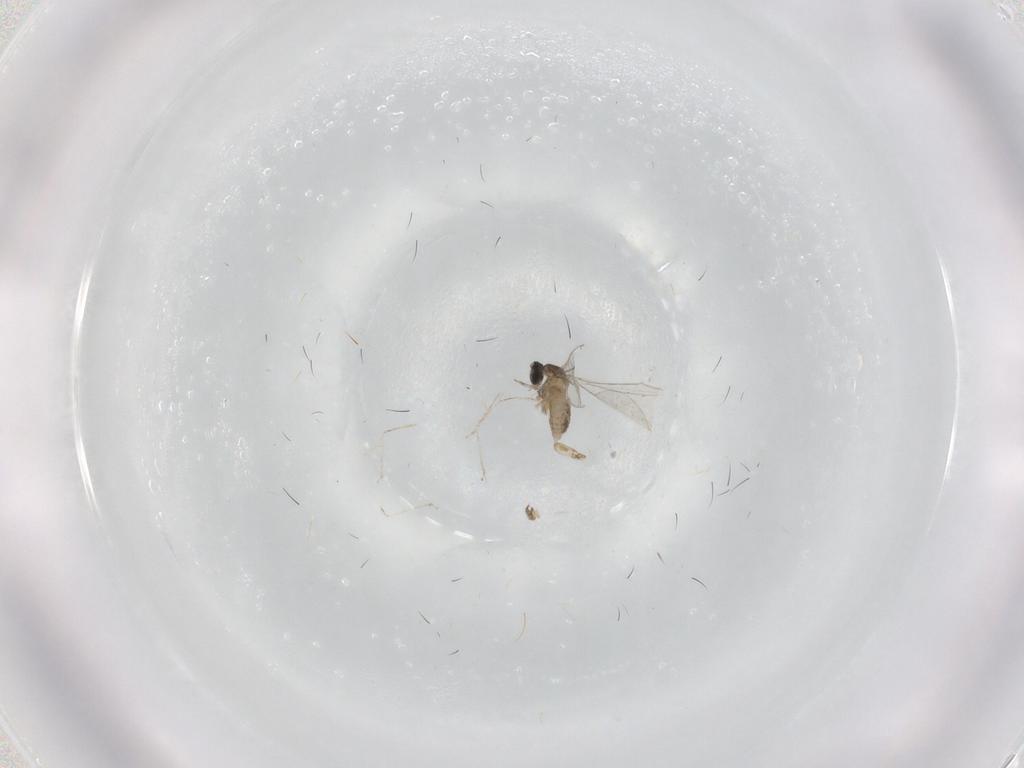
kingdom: Animalia
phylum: Arthropoda
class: Insecta
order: Diptera
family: Cecidomyiidae
